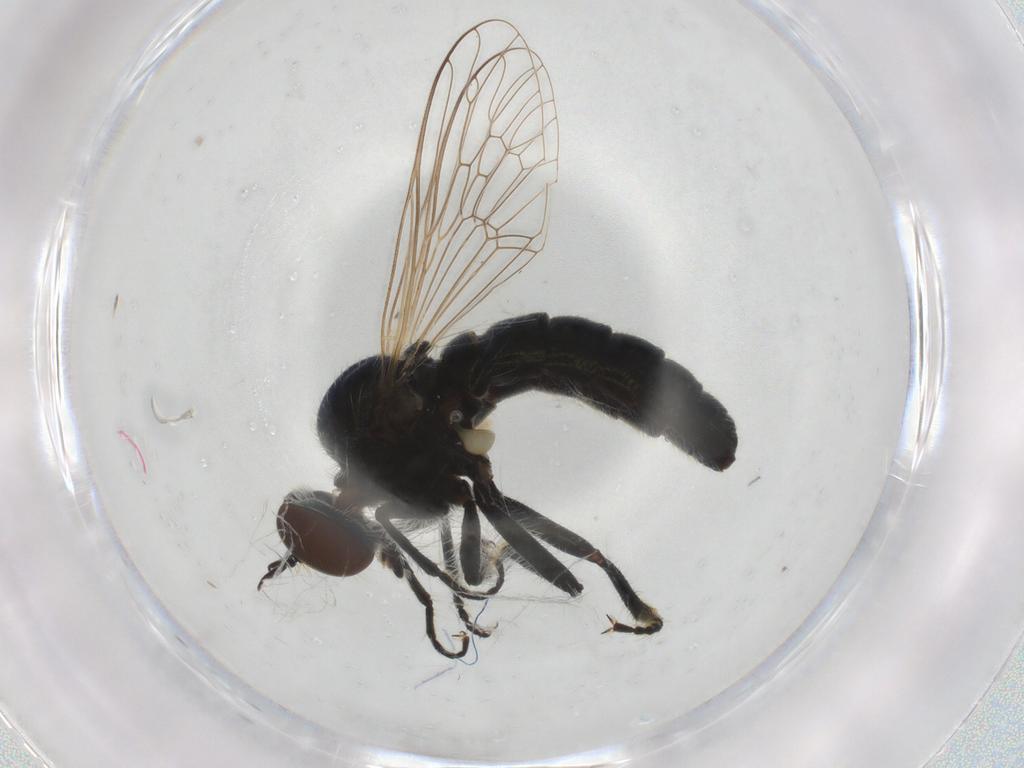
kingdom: Animalia
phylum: Arthropoda
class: Insecta
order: Diptera
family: Asilidae
